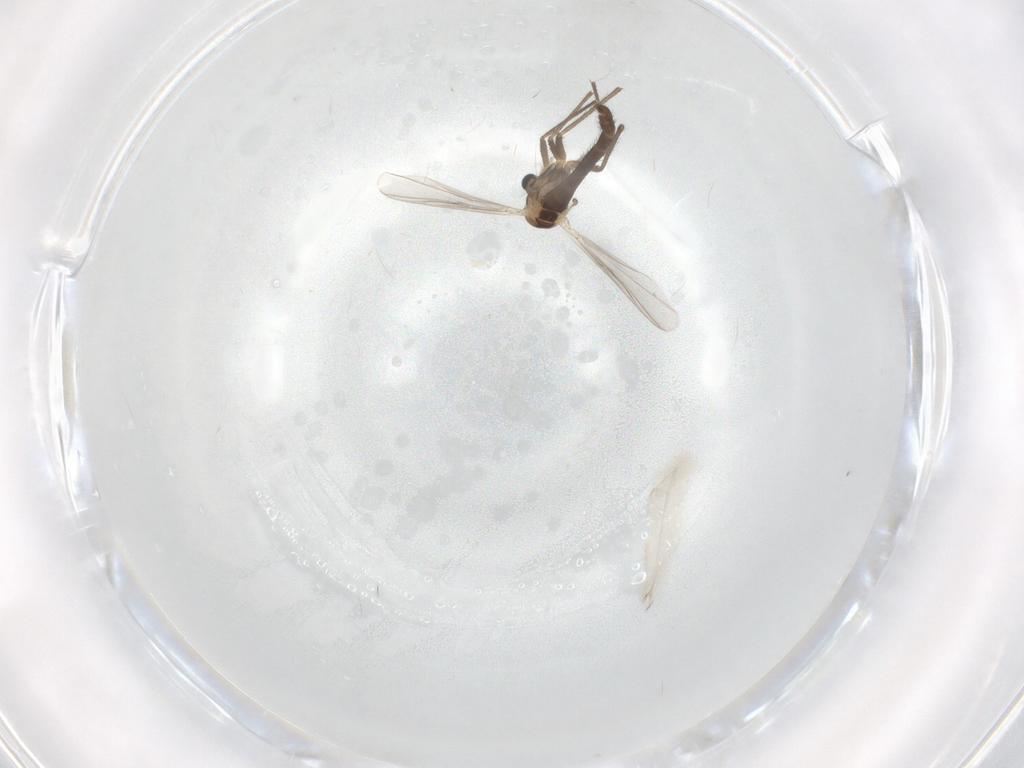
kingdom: Animalia
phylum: Arthropoda
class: Insecta
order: Diptera
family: Chironomidae
